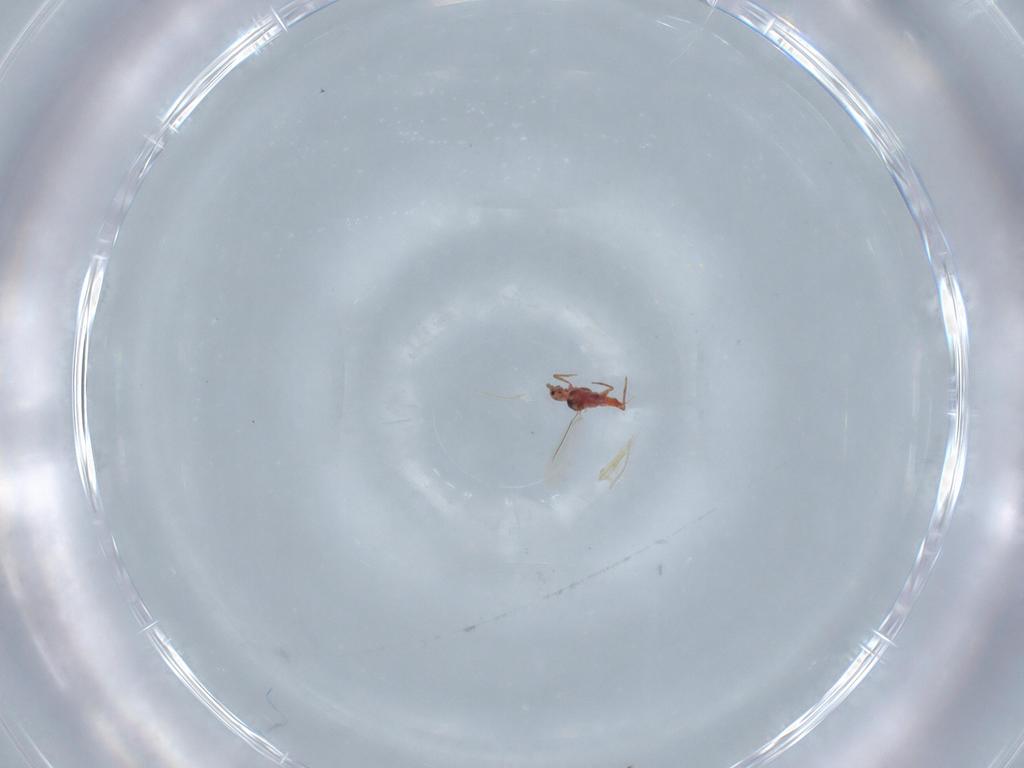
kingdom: Animalia
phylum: Arthropoda
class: Insecta
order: Hemiptera
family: Coccoidea_incertae_sedis
